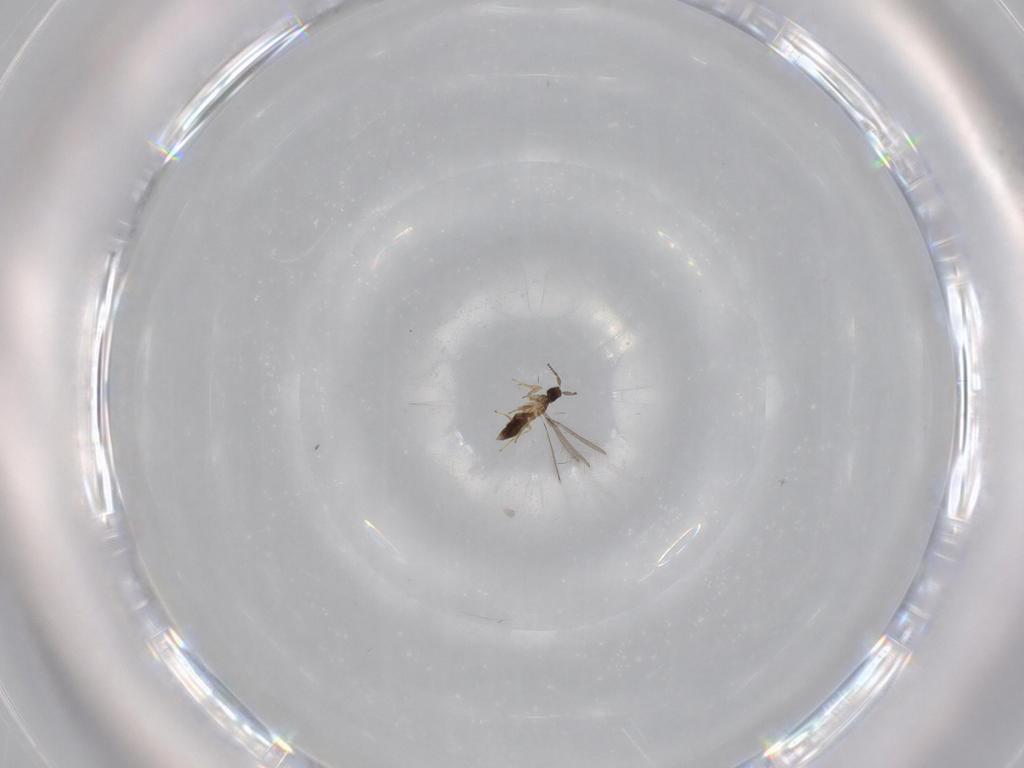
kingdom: Animalia
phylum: Arthropoda
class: Insecta
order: Hymenoptera
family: Mymaridae
